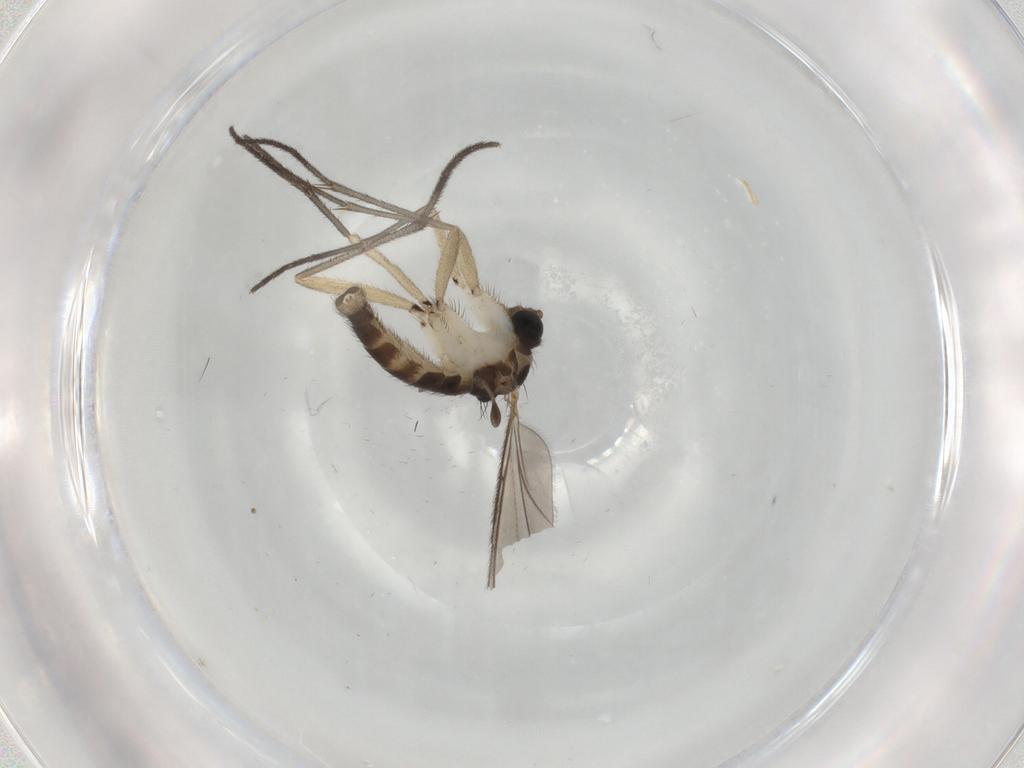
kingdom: Animalia
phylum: Arthropoda
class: Insecta
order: Diptera
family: Sciaridae
